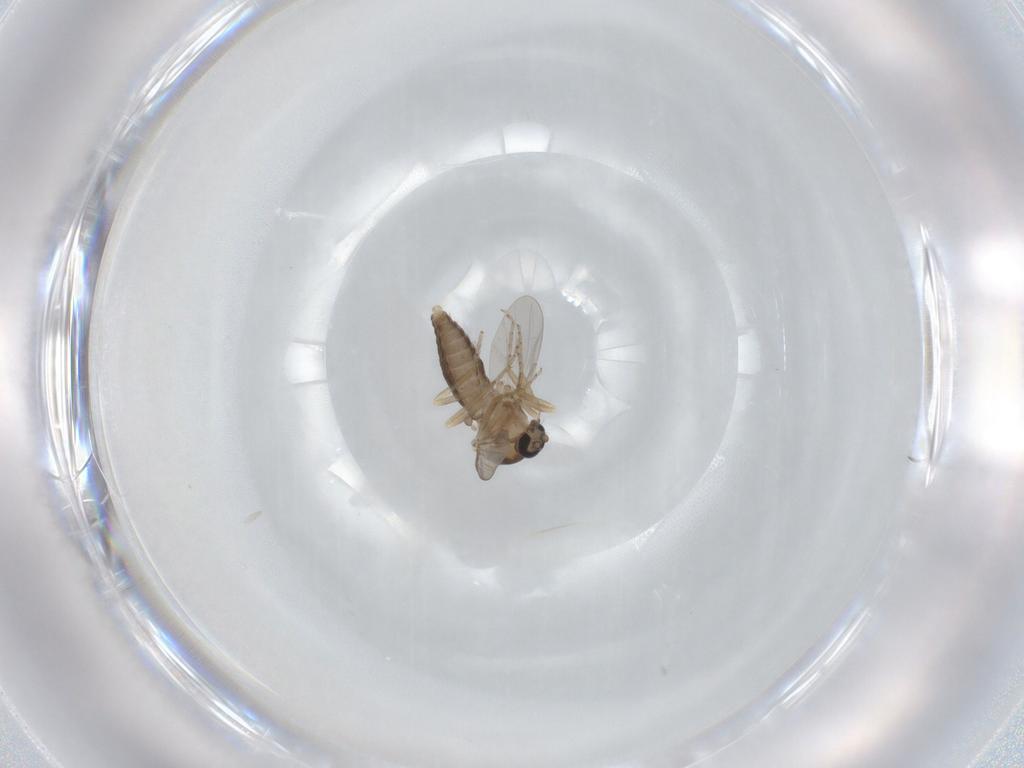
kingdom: Animalia
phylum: Arthropoda
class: Insecta
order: Diptera
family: Ceratopogonidae
